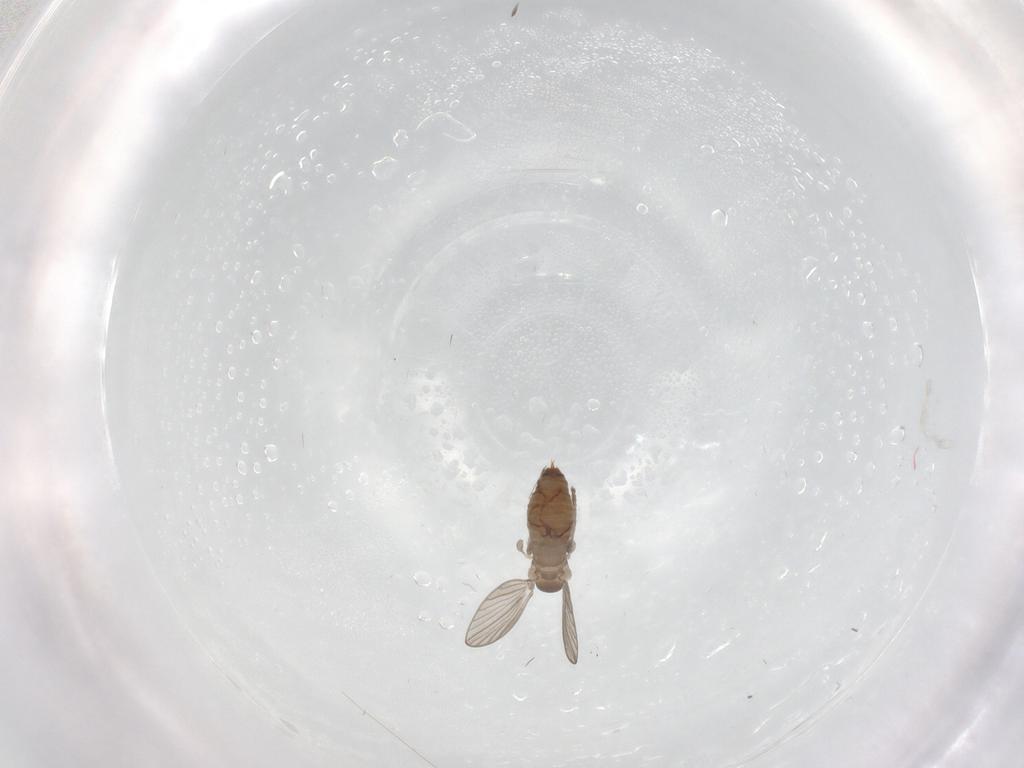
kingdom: Animalia
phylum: Arthropoda
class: Insecta
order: Diptera
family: Psychodidae
